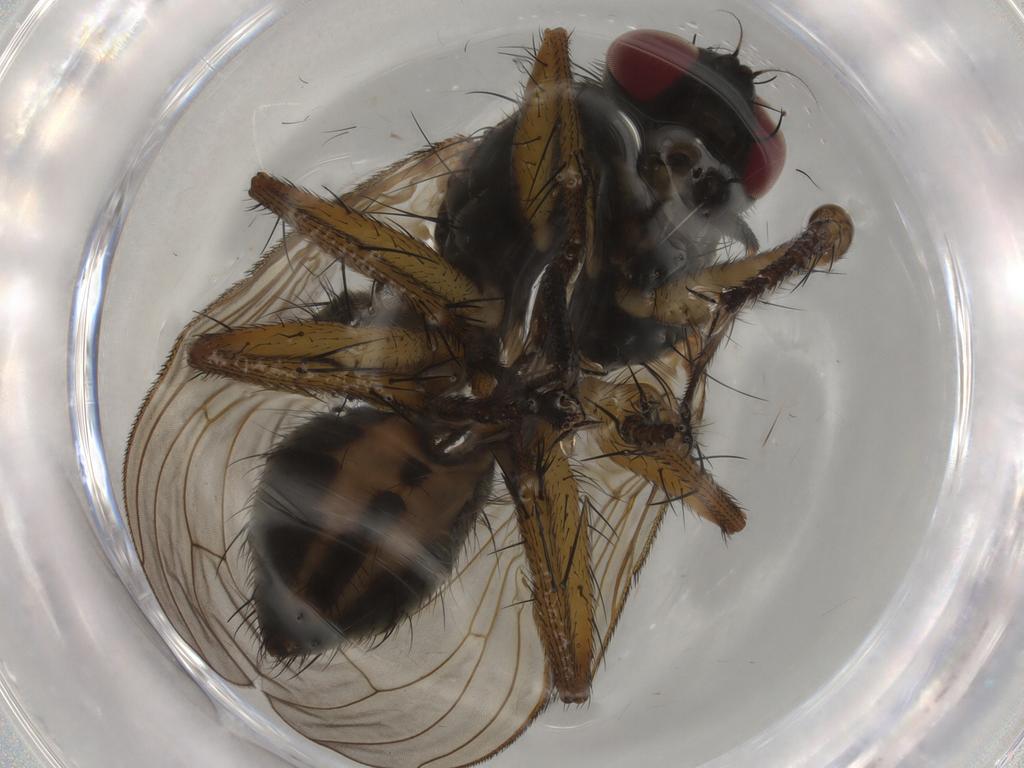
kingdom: Animalia
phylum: Arthropoda
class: Insecta
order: Diptera
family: Muscidae
